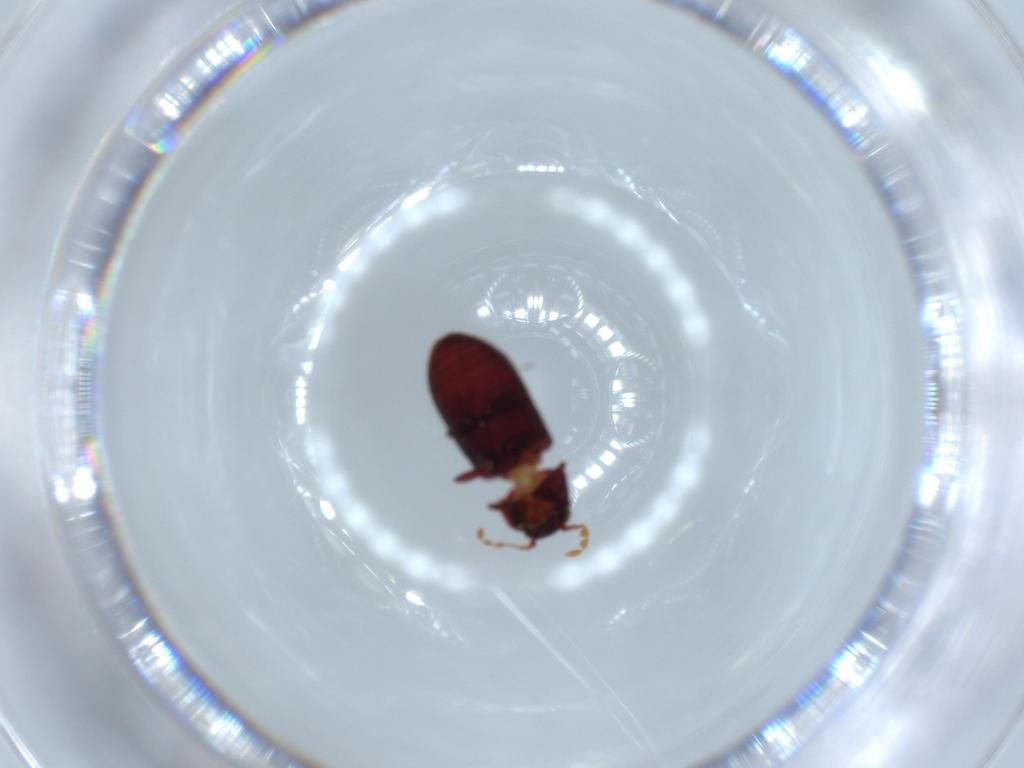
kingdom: Animalia
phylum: Arthropoda
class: Insecta
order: Coleoptera
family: Anobiidae
